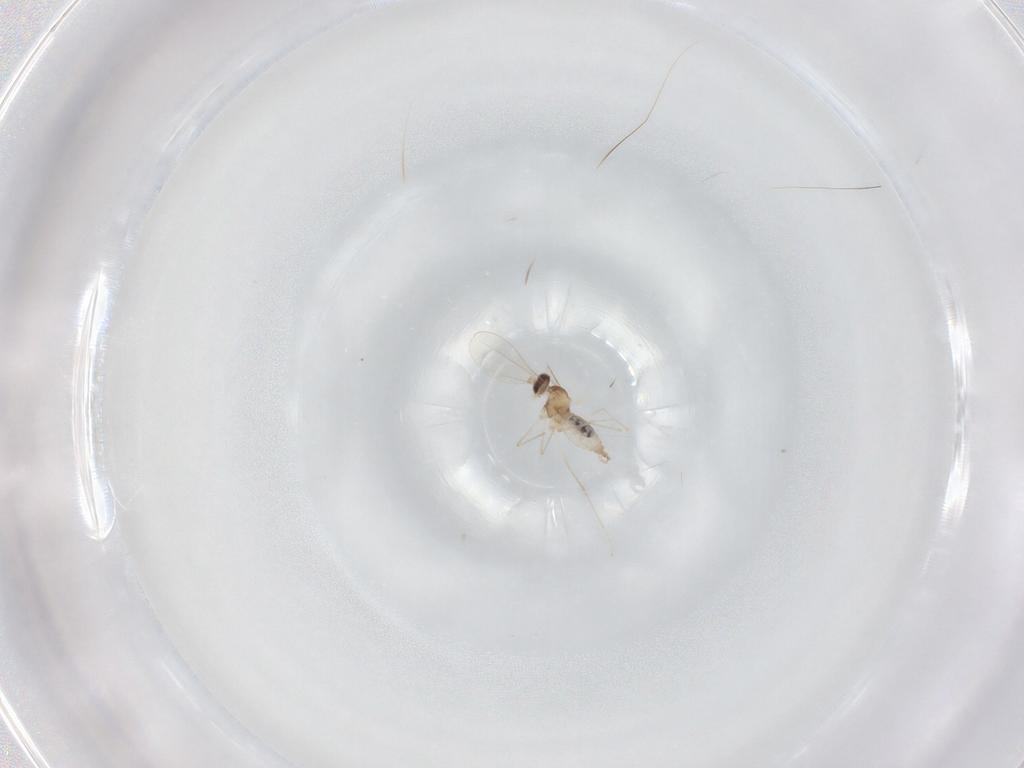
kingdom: Animalia
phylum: Arthropoda
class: Insecta
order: Diptera
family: Cecidomyiidae
